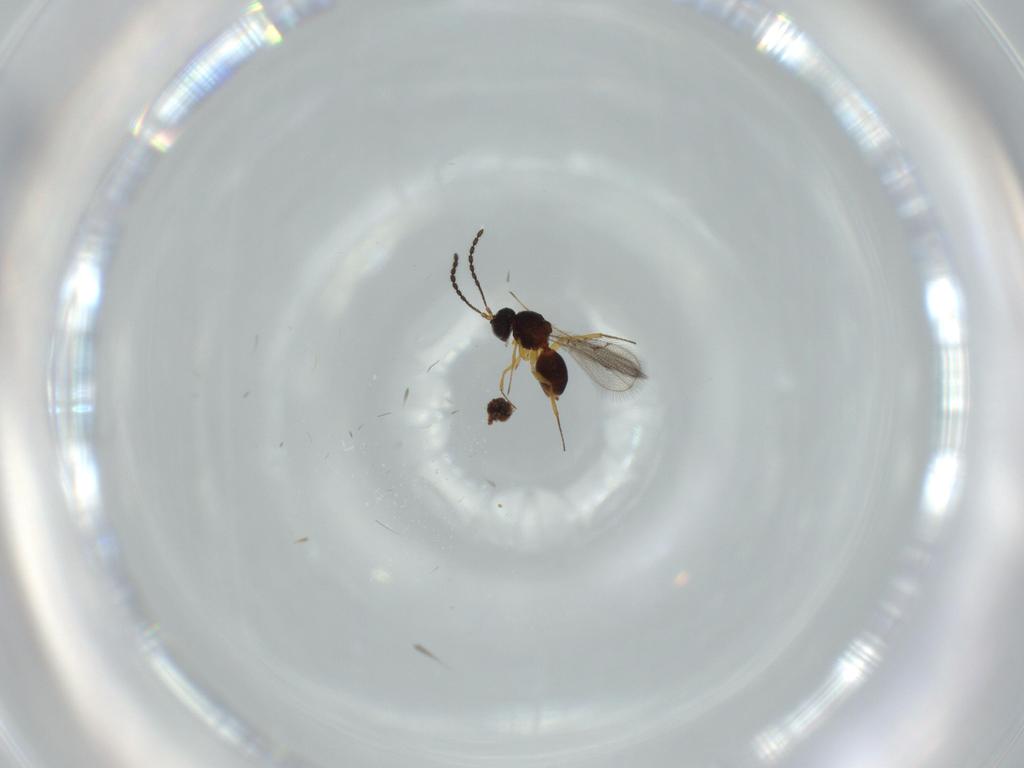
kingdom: Animalia
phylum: Arthropoda
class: Insecta
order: Hymenoptera
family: Figitidae
